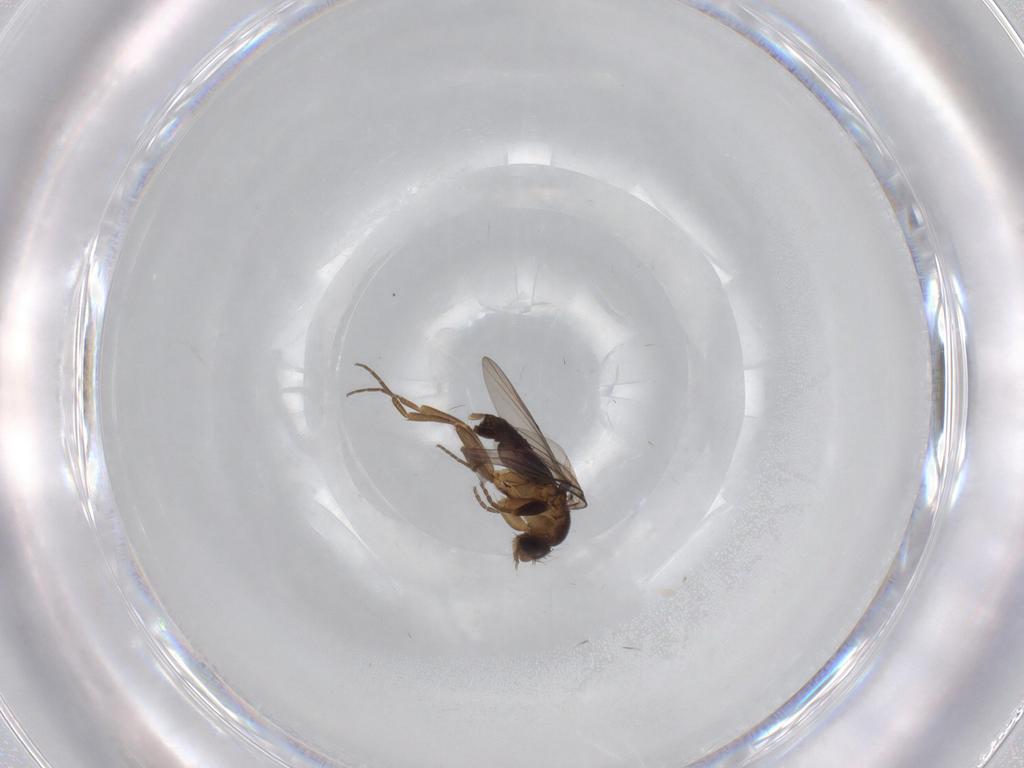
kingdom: Animalia
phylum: Arthropoda
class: Insecta
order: Diptera
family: Phoridae
